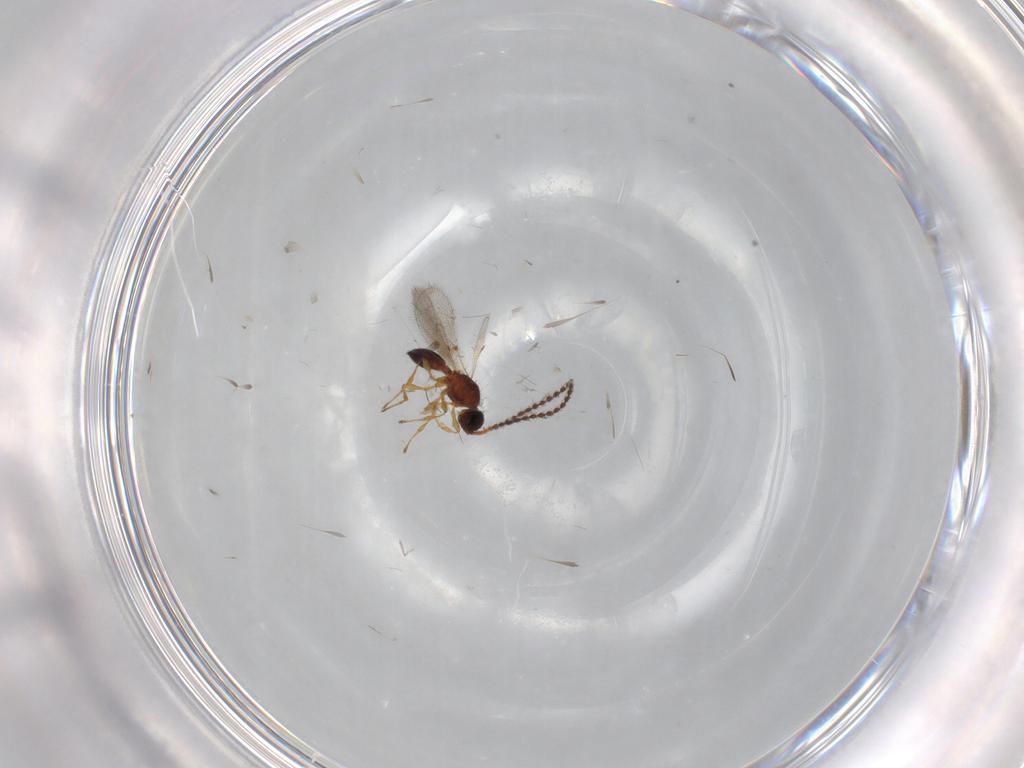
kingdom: Animalia
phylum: Arthropoda
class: Insecta
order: Hymenoptera
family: Diapriidae
